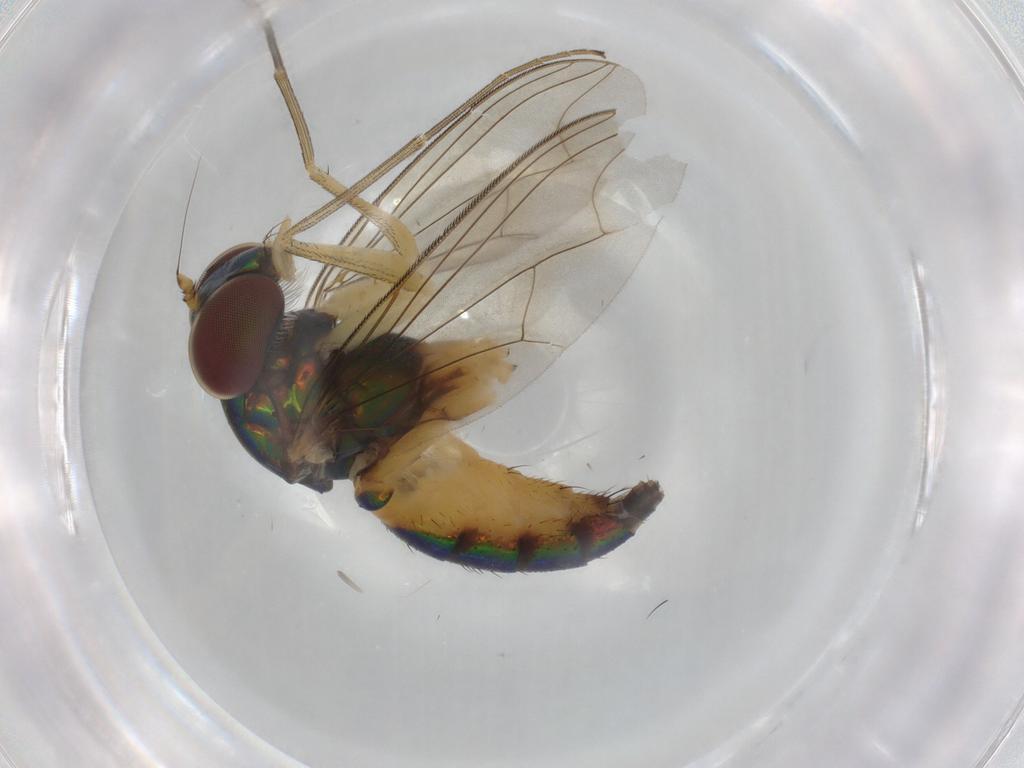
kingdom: Animalia
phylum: Arthropoda
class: Insecta
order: Diptera
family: Dolichopodidae
